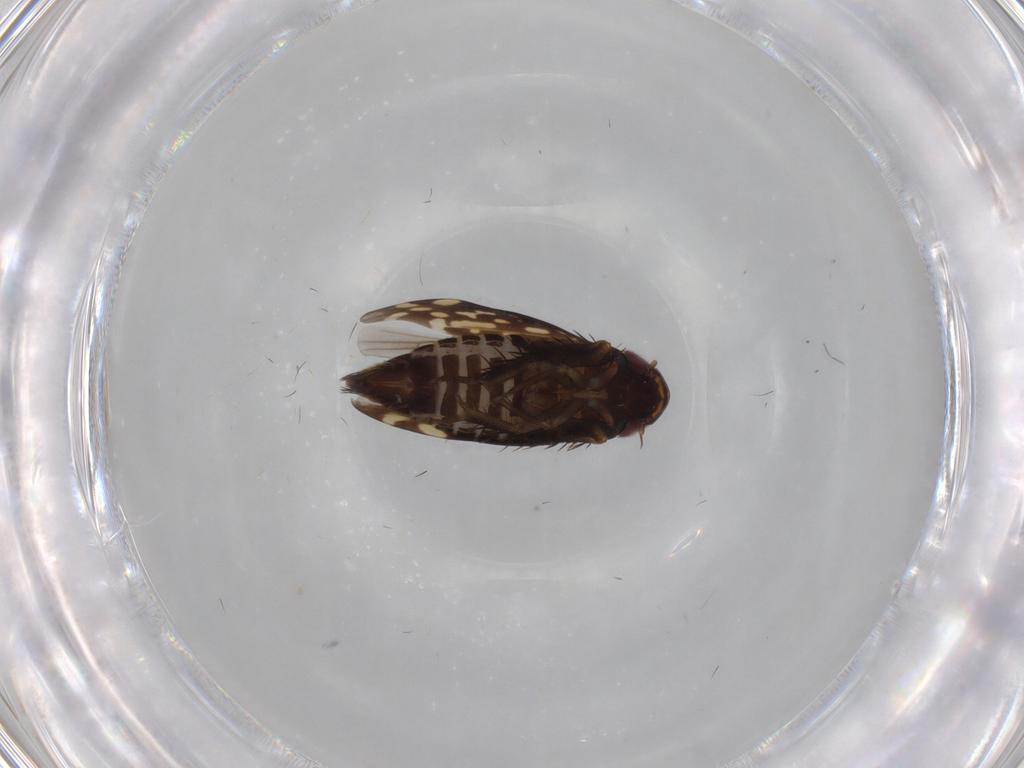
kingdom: Animalia
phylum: Arthropoda
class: Insecta
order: Hemiptera
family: Cicadellidae
